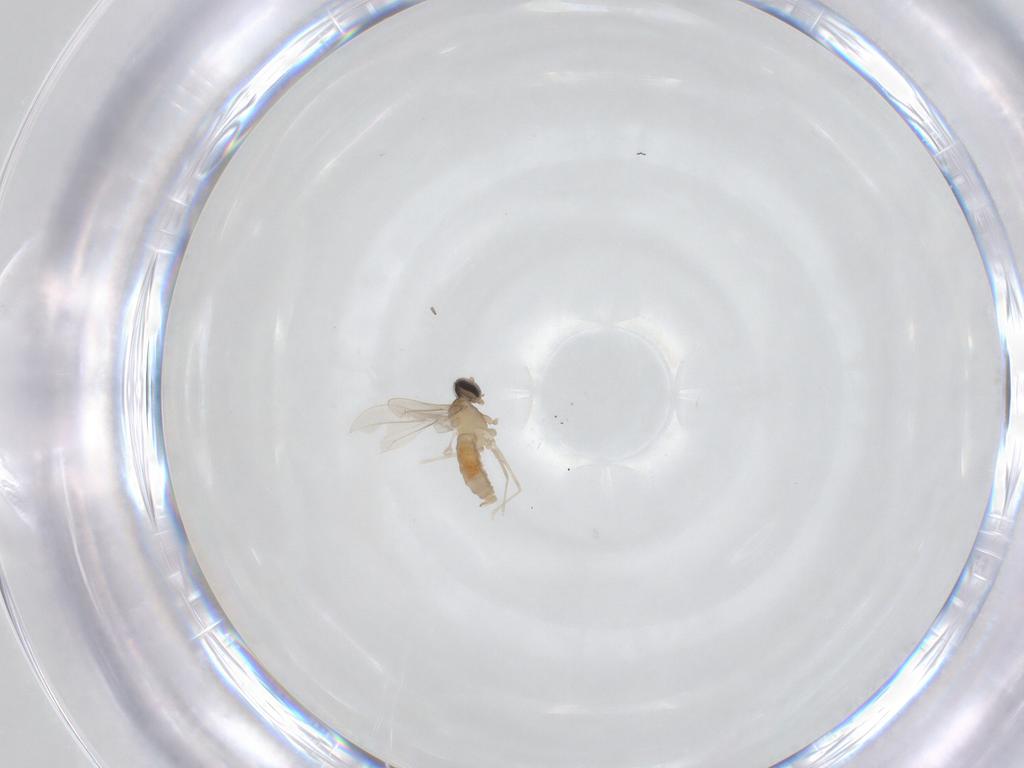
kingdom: Animalia
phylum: Arthropoda
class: Insecta
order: Diptera
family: Cecidomyiidae
